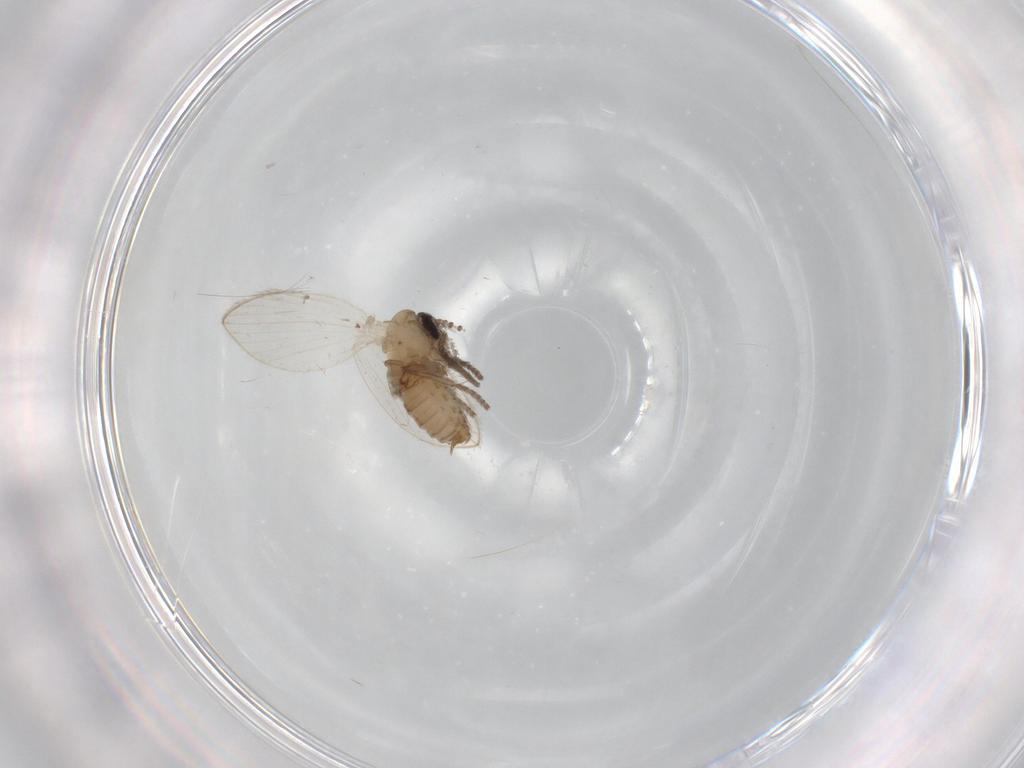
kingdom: Animalia
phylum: Arthropoda
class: Insecta
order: Diptera
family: Psychodidae
